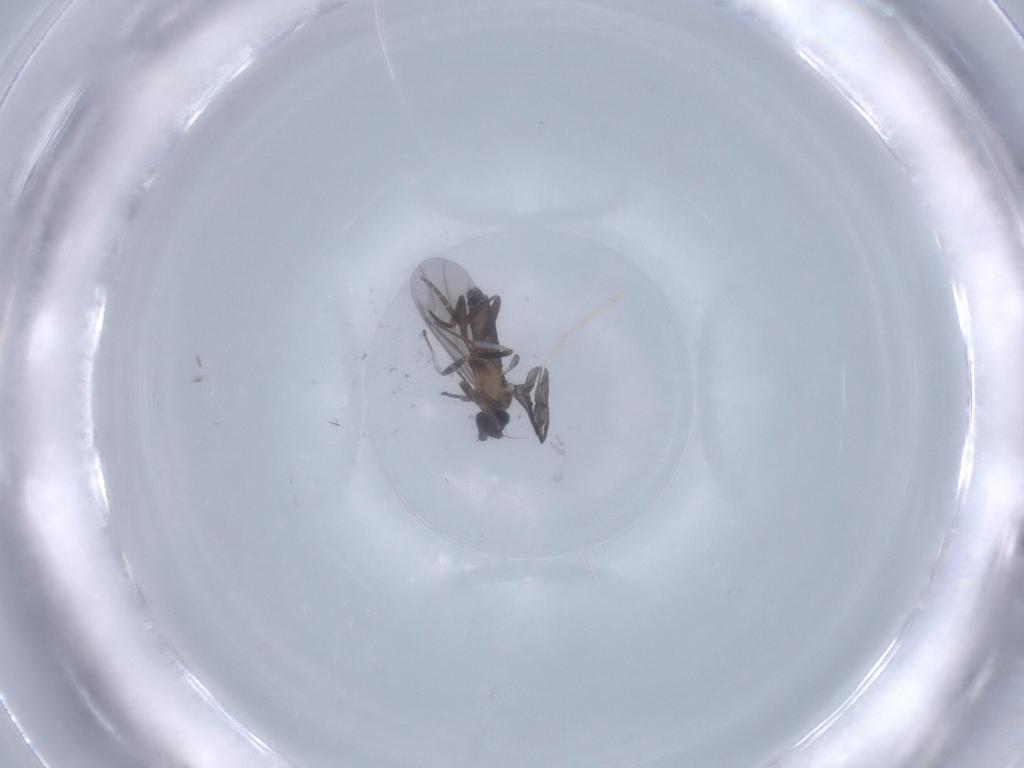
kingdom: Animalia
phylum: Arthropoda
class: Insecta
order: Diptera
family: Phoridae
